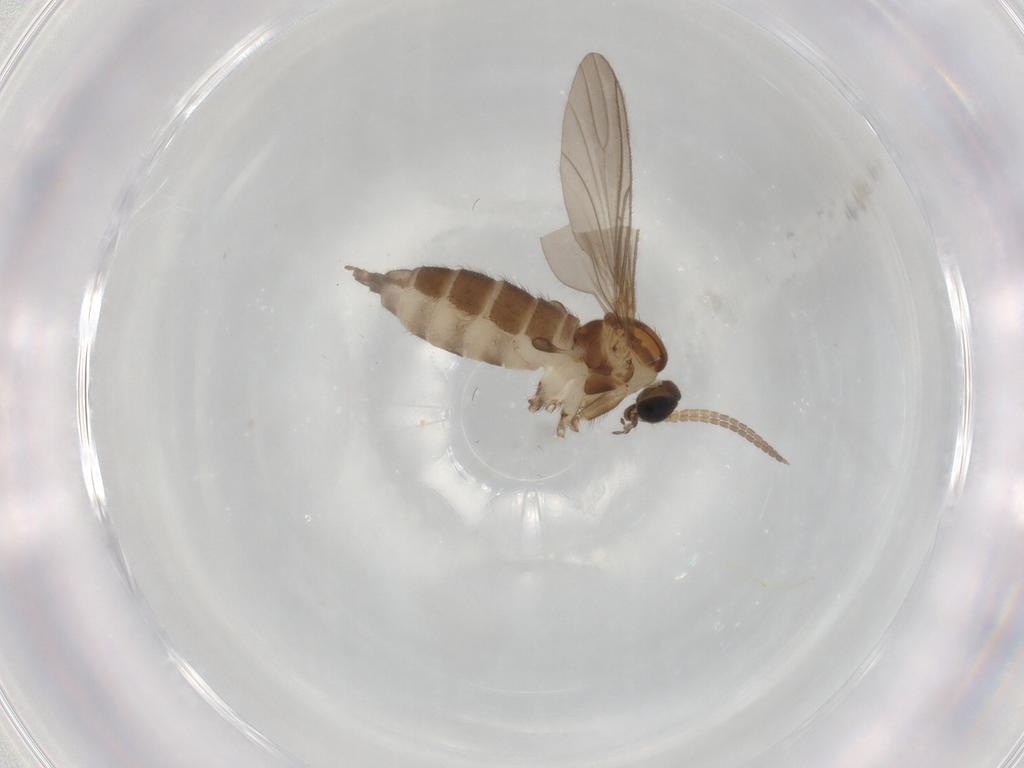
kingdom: Animalia
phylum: Arthropoda
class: Insecta
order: Diptera
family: Sciaridae
